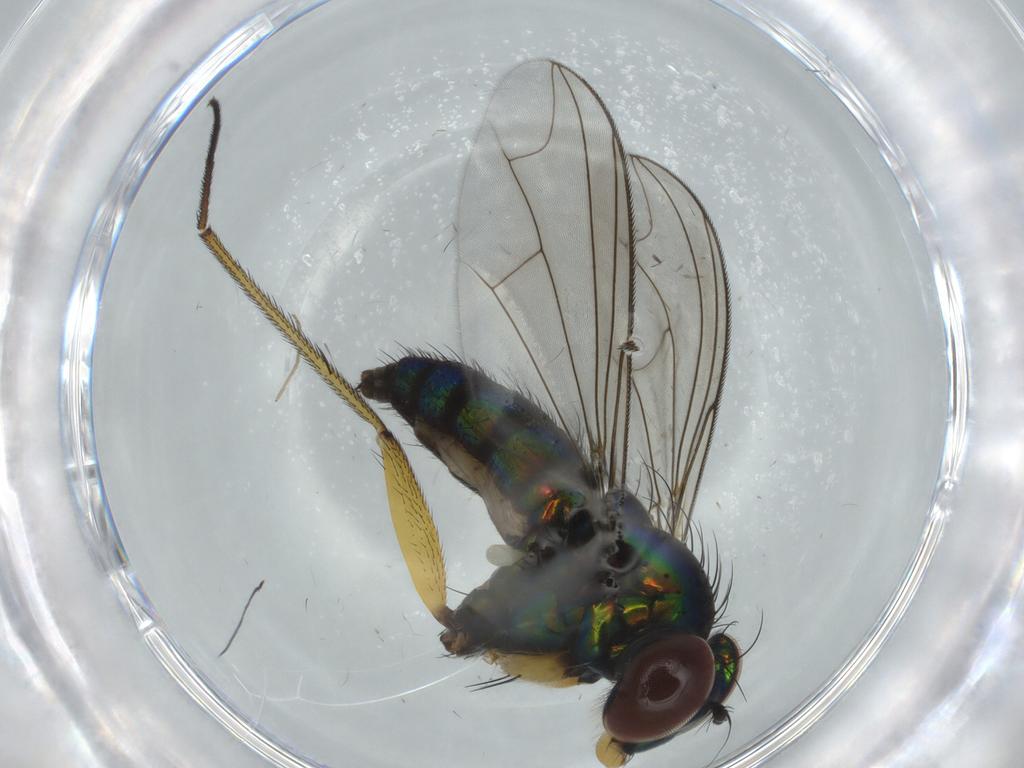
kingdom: Animalia
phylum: Arthropoda
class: Insecta
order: Diptera
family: Dolichopodidae
